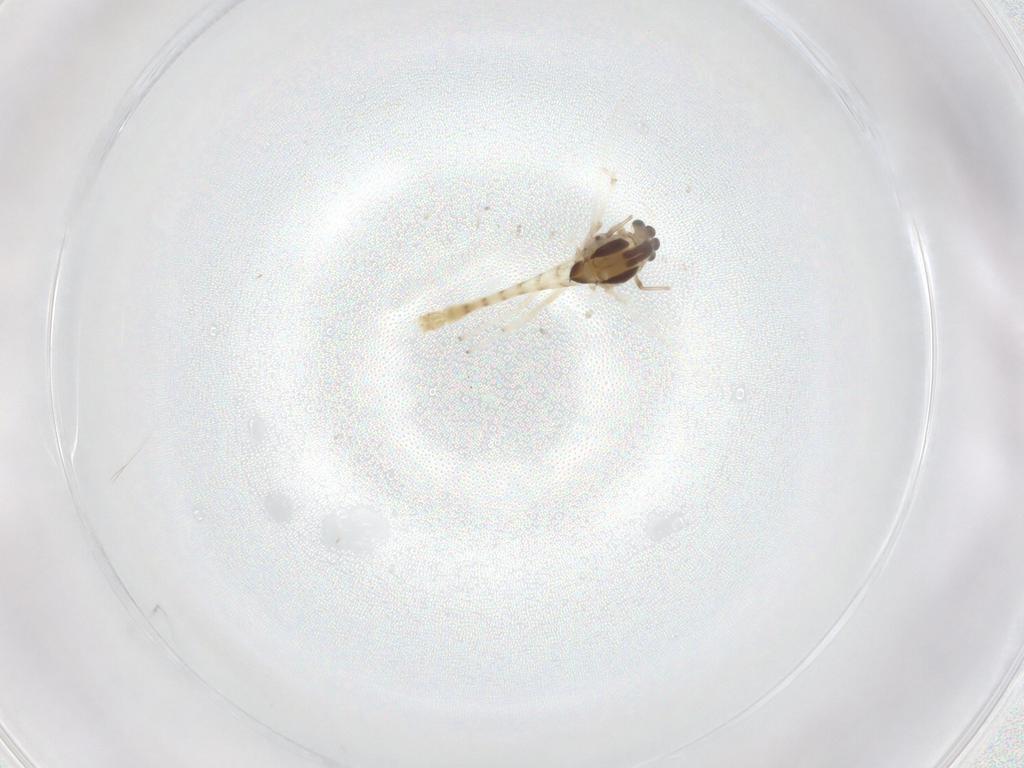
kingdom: Animalia
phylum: Arthropoda
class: Insecta
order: Diptera
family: Chironomidae
